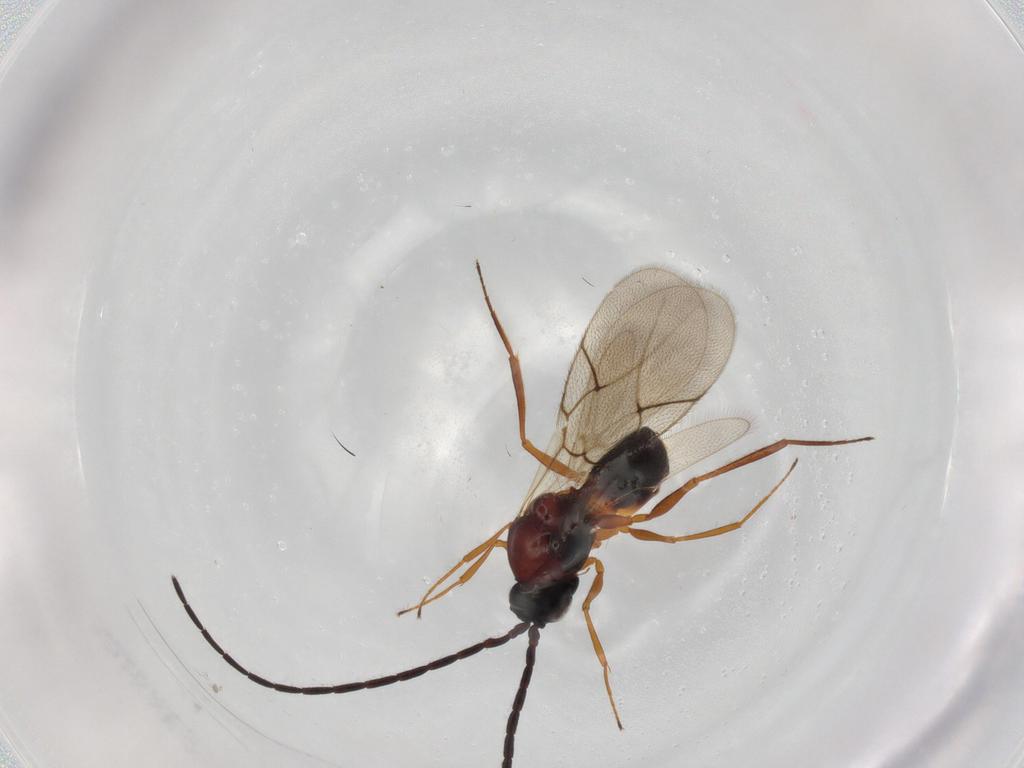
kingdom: Animalia
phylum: Arthropoda
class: Insecta
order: Hymenoptera
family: Figitidae
